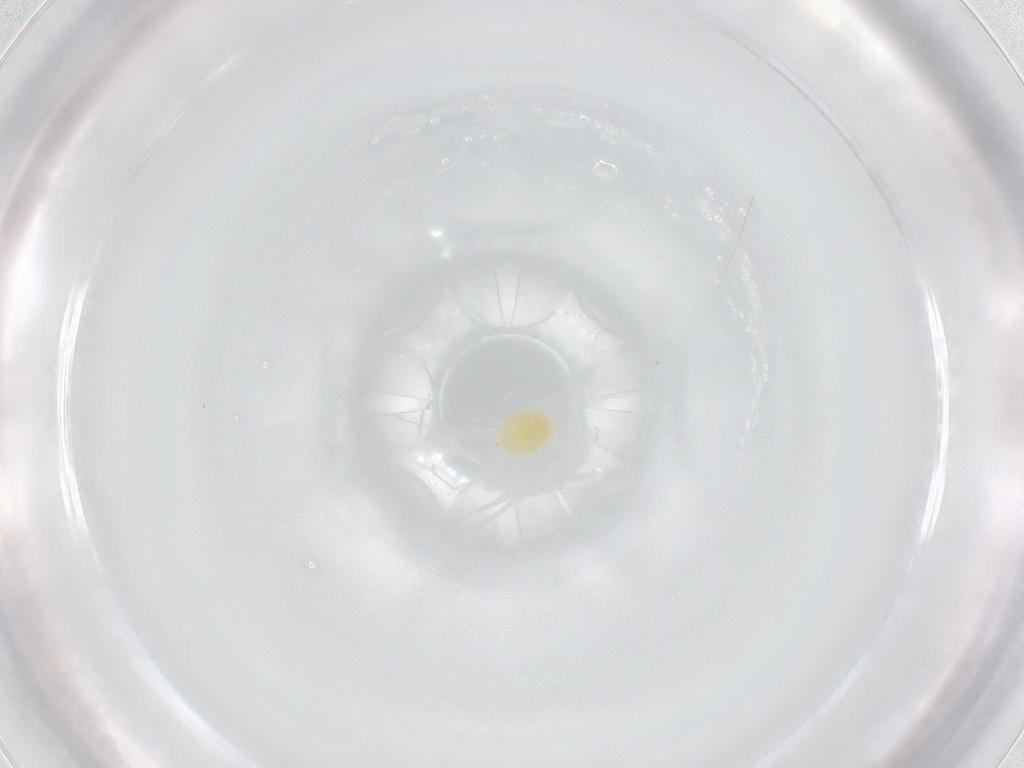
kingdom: Animalia
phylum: Arthropoda
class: Arachnida
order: Trombidiformes
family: Tetranychidae
